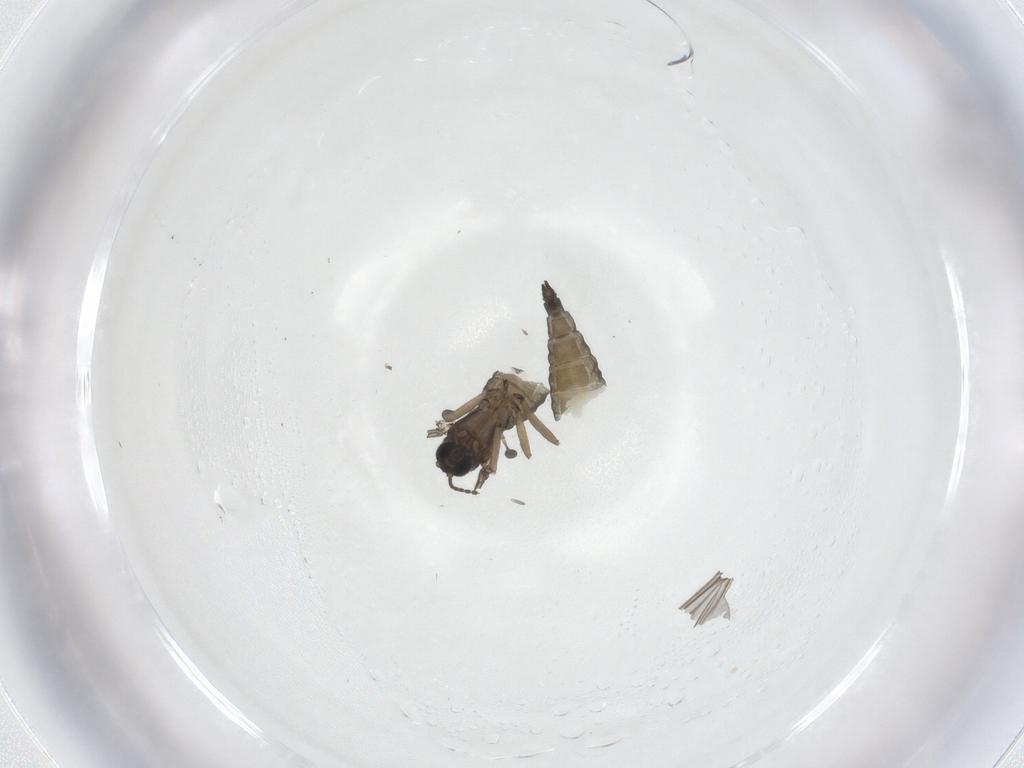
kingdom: Animalia
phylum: Arthropoda
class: Insecta
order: Diptera
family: Sciaridae
